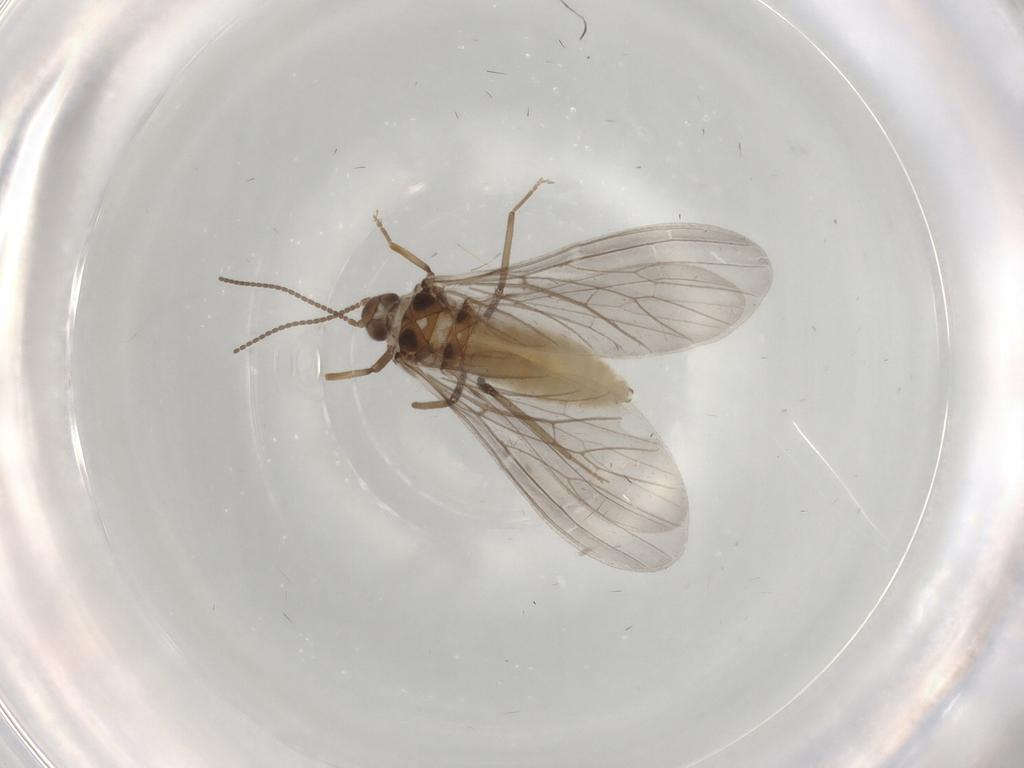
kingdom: Animalia
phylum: Arthropoda
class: Insecta
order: Neuroptera
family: Coniopterygidae
